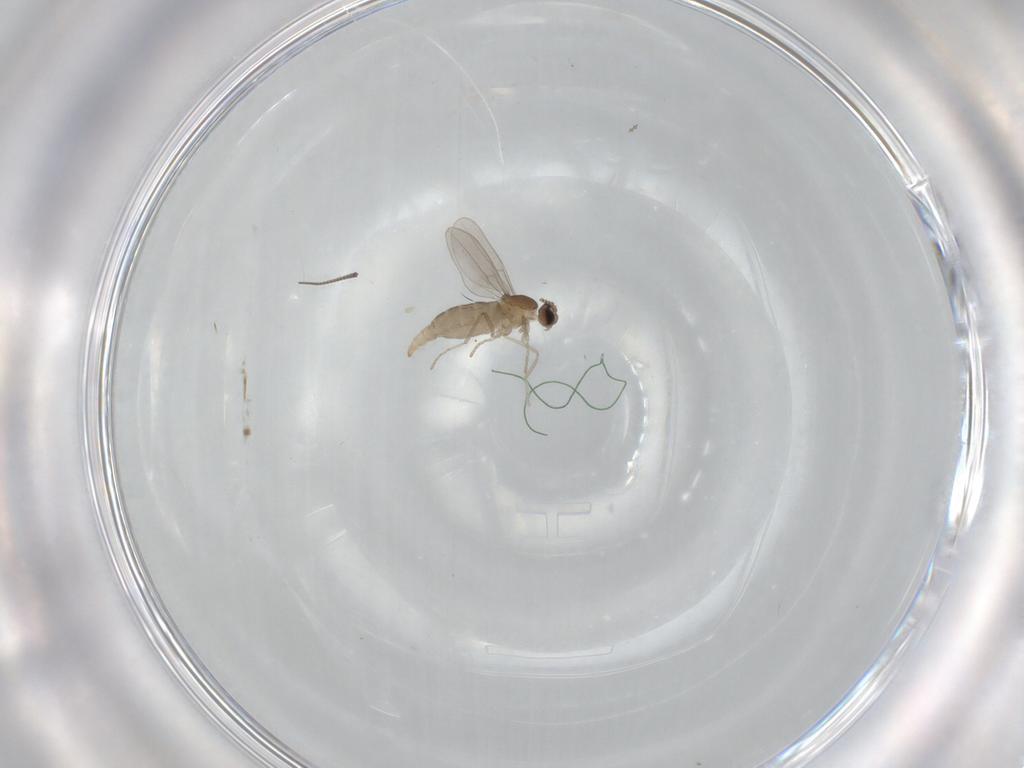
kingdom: Animalia
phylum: Arthropoda
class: Insecta
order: Diptera
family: Cecidomyiidae
